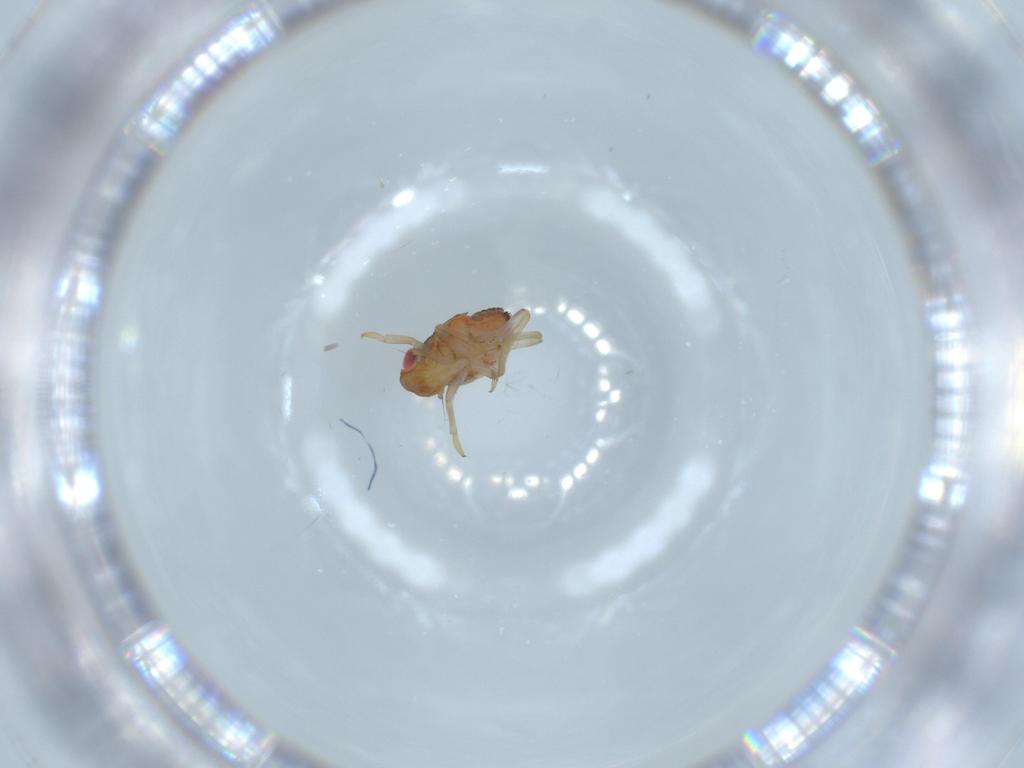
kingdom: Animalia
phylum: Arthropoda
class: Insecta
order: Hemiptera
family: Issidae
